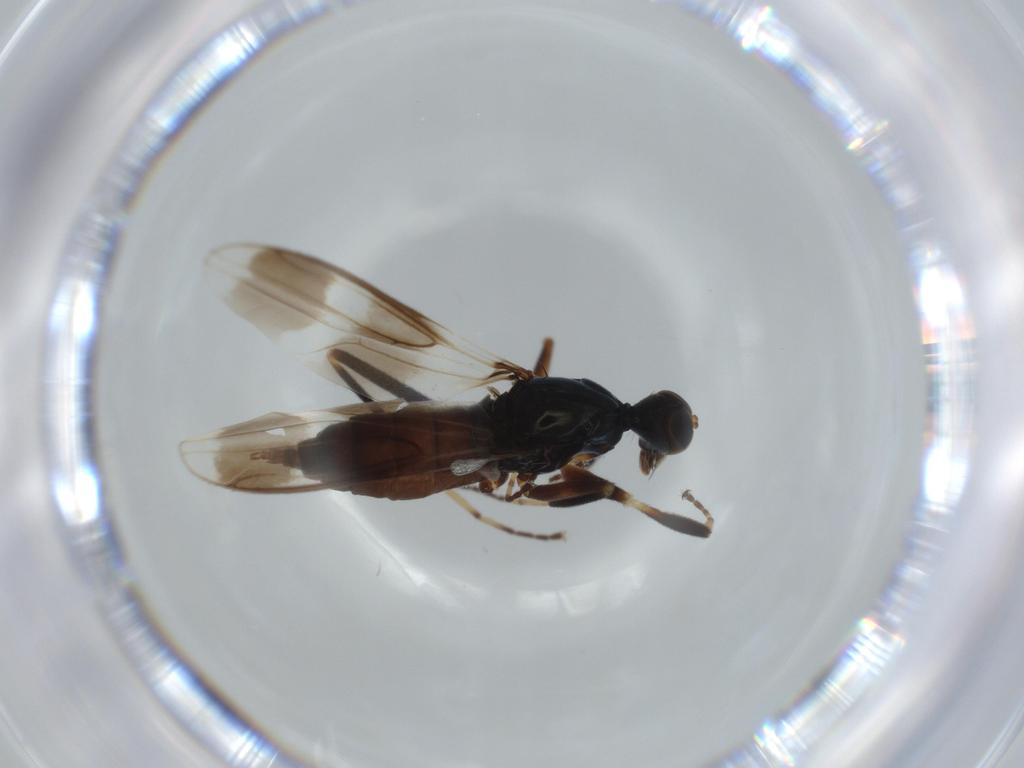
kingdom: Animalia
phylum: Arthropoda
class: Insecta
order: Diptera
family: Hybotidae
